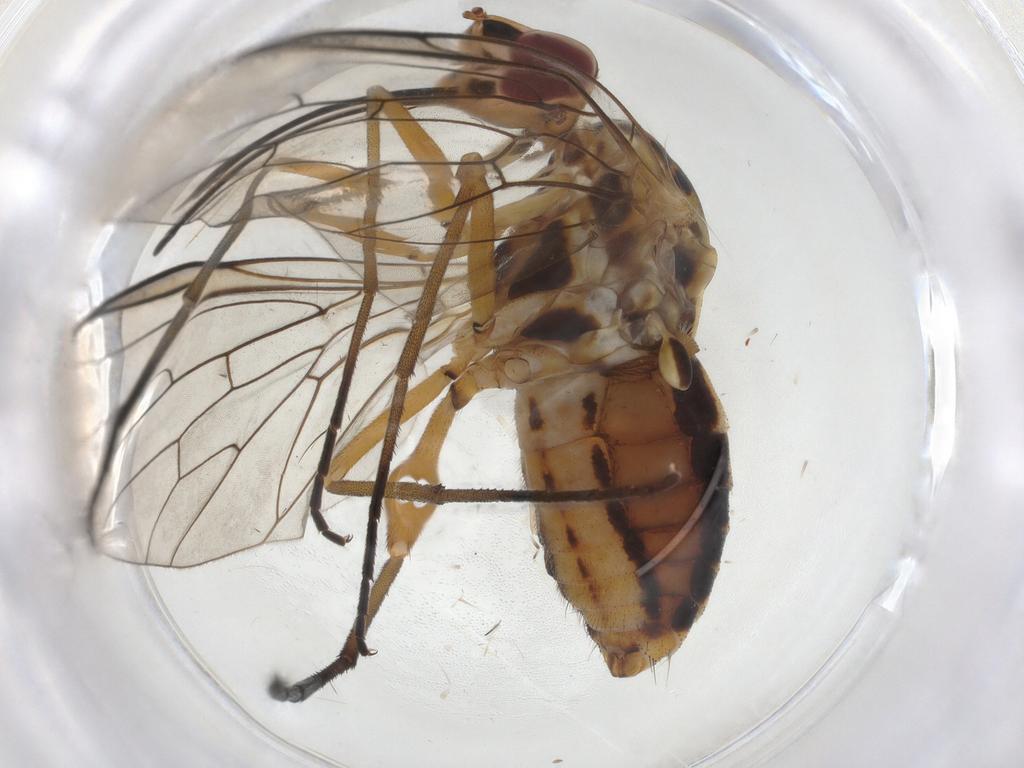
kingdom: Animalia
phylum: Arthropoda
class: Insecta
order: Diptera
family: Bombyliidae
